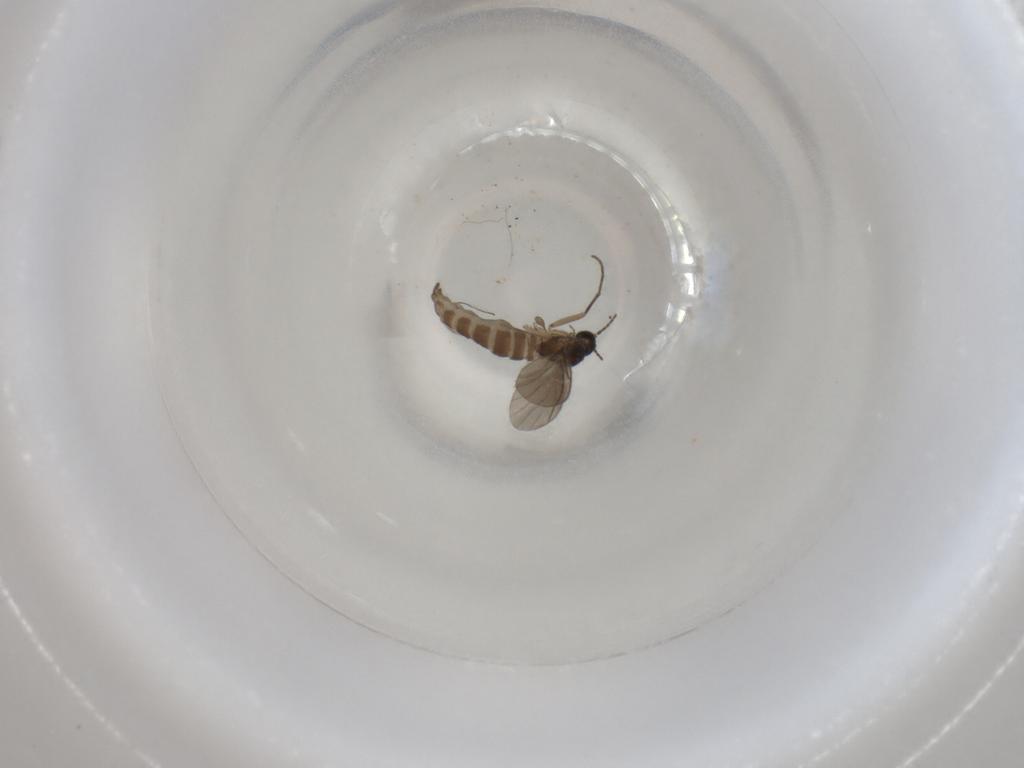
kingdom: Animalia
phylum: Arthropoda
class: Insecta
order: Diptera
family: Sciaridae
